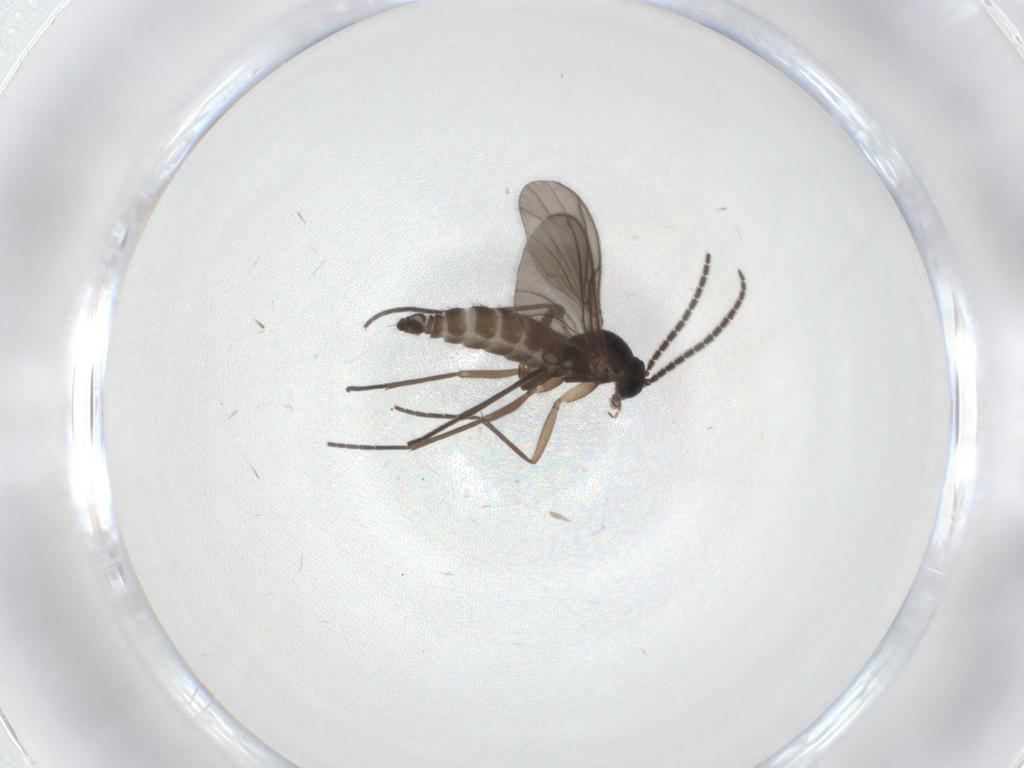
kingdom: Animalia
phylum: Arthropoda
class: Insecta
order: Diptera
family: Sciaridae
